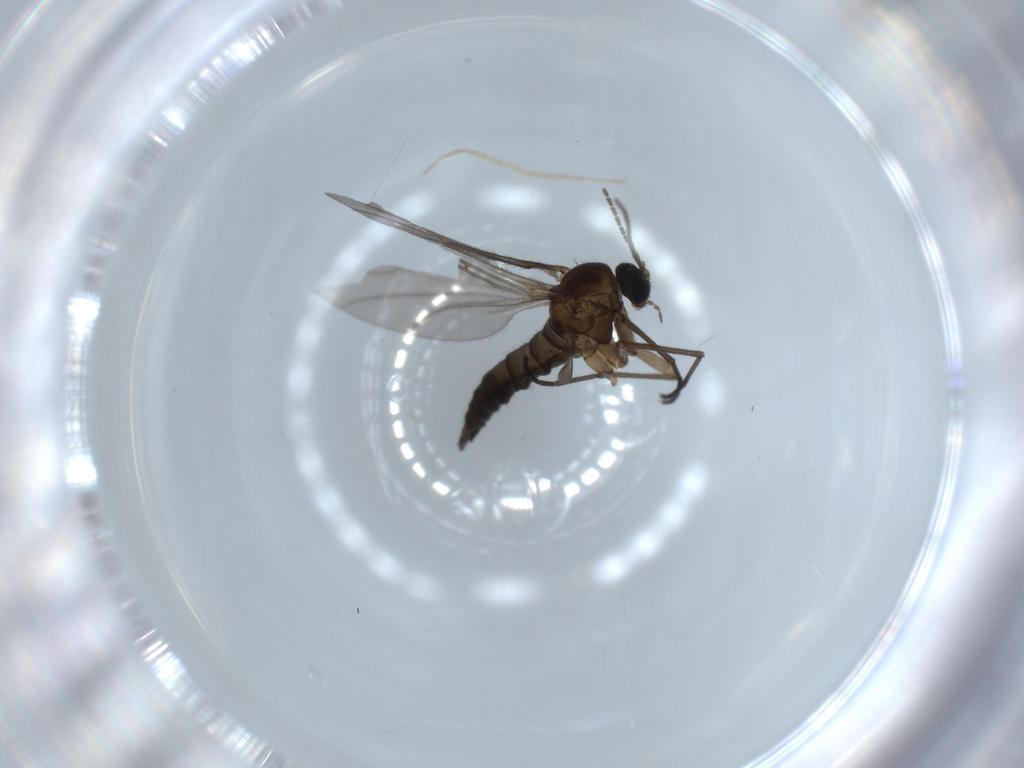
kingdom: Animalia
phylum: Arthropoda
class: Insecta
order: Diptera
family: Sciaridae
